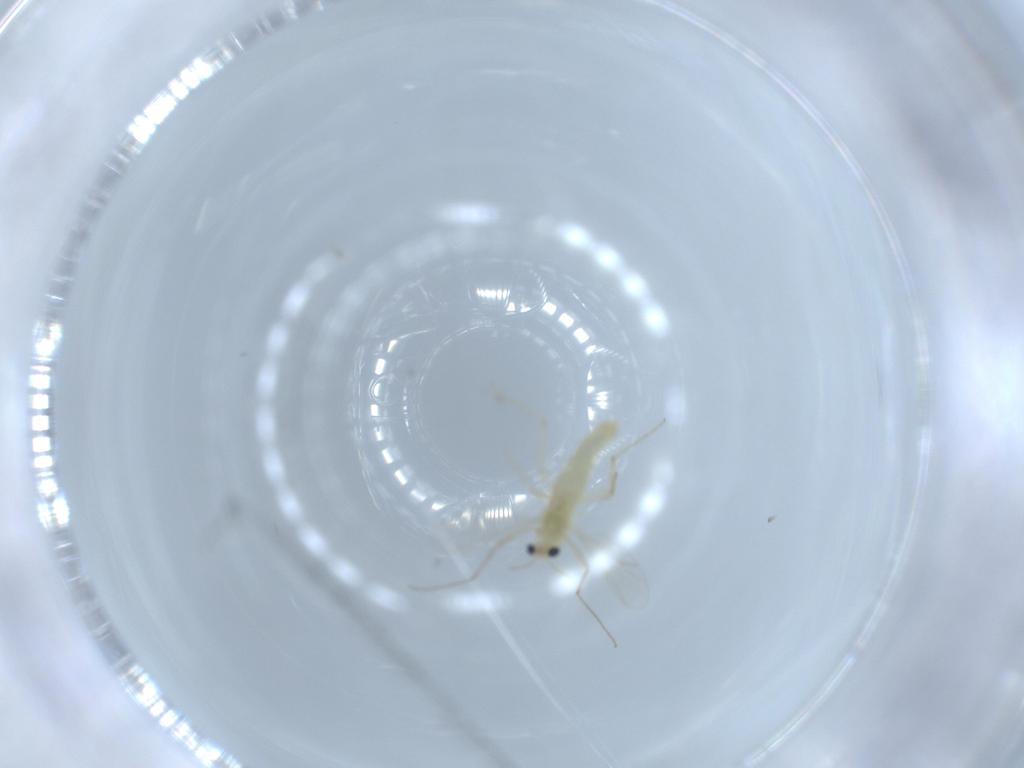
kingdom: Animalia
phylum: Arthropoda
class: Insecta
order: Diptera
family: Chironomidae
